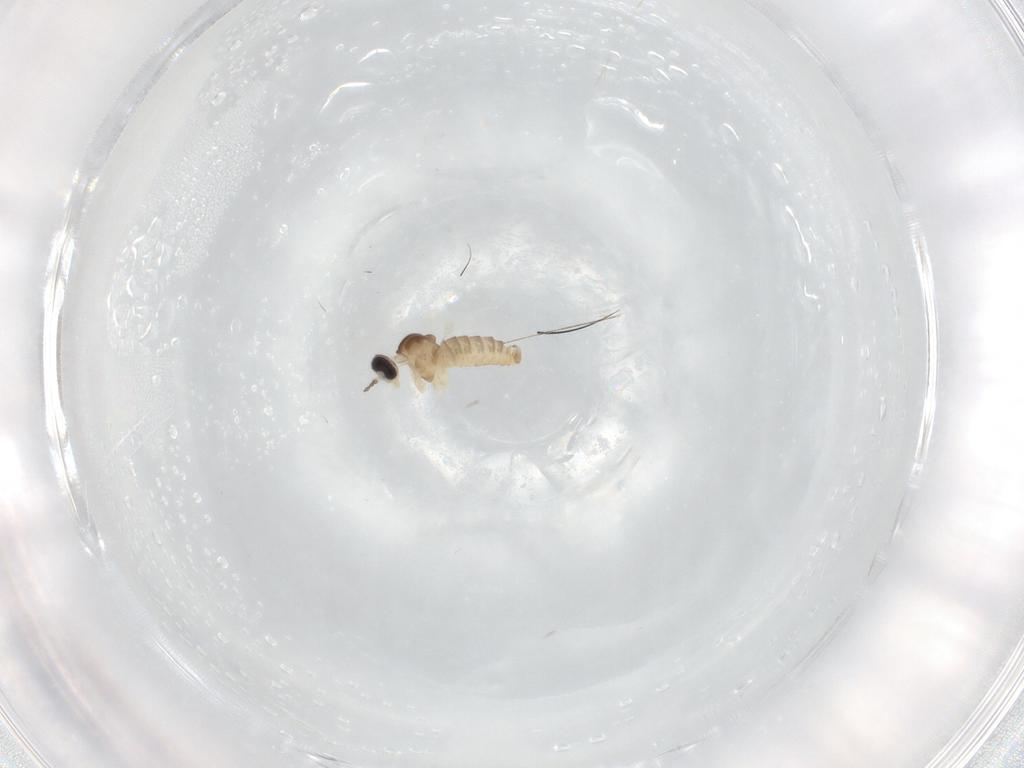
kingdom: Animalia
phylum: Arthropoda
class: Insecta
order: Diptera
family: Cecidomyiidae
